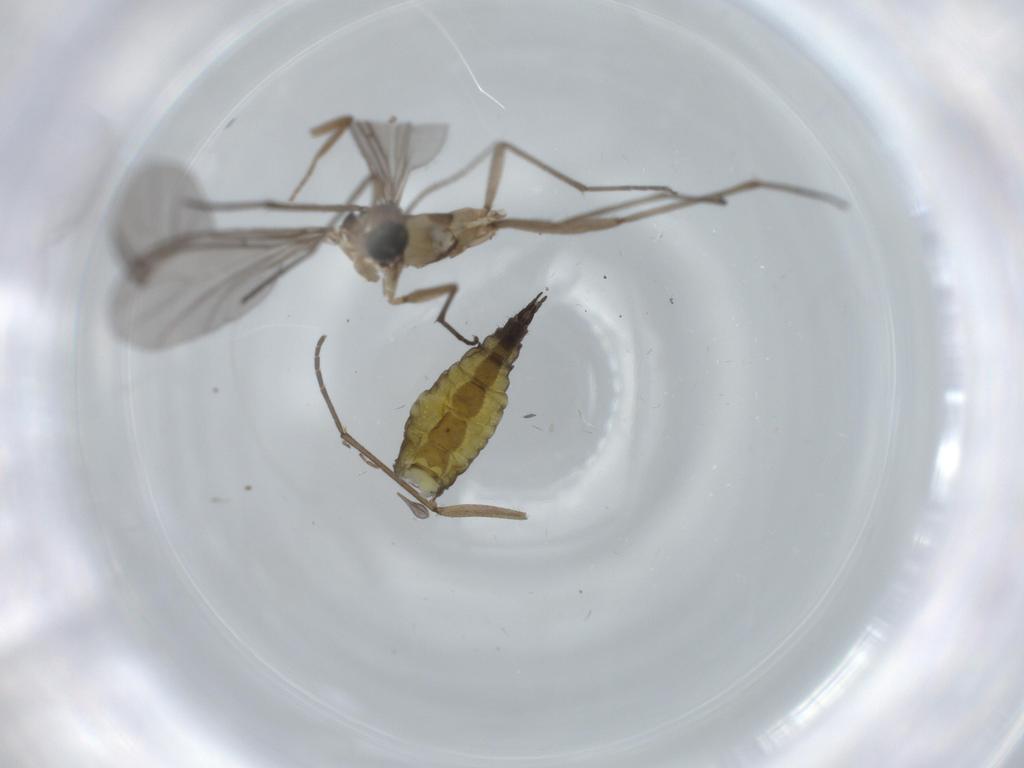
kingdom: Animalia
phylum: Arthropoda
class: Insecta
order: Diptera
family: Sciaridae
